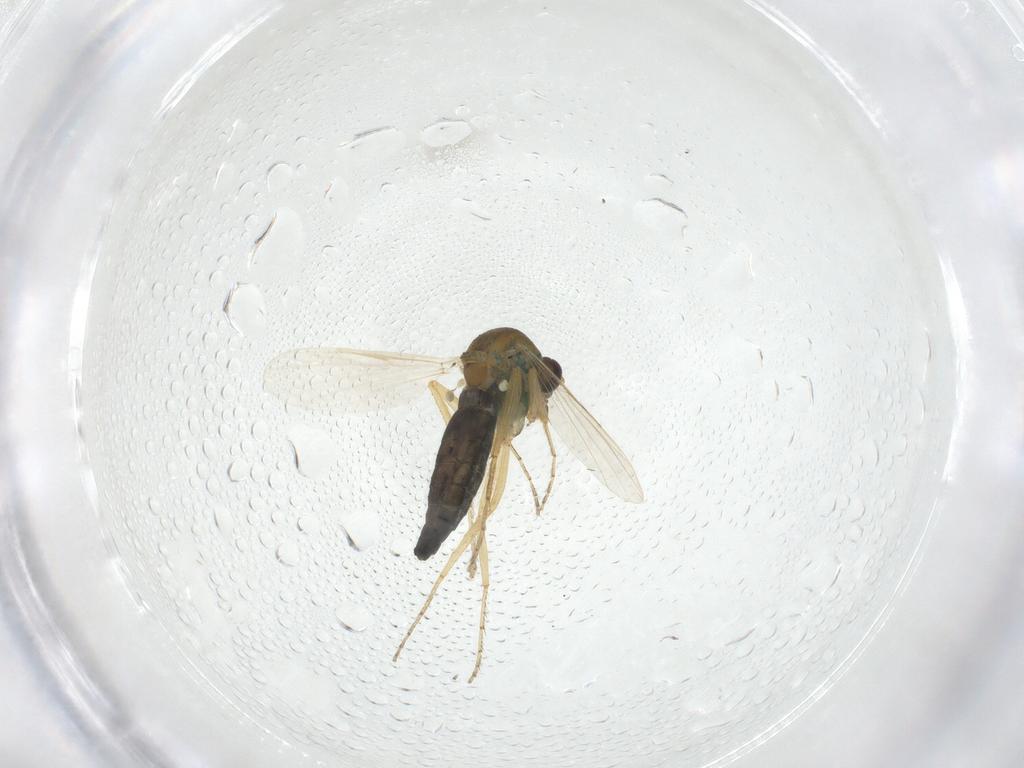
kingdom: Animalia
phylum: Arthropoda
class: Insecta
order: Diptera
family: Ceratopogonidae
